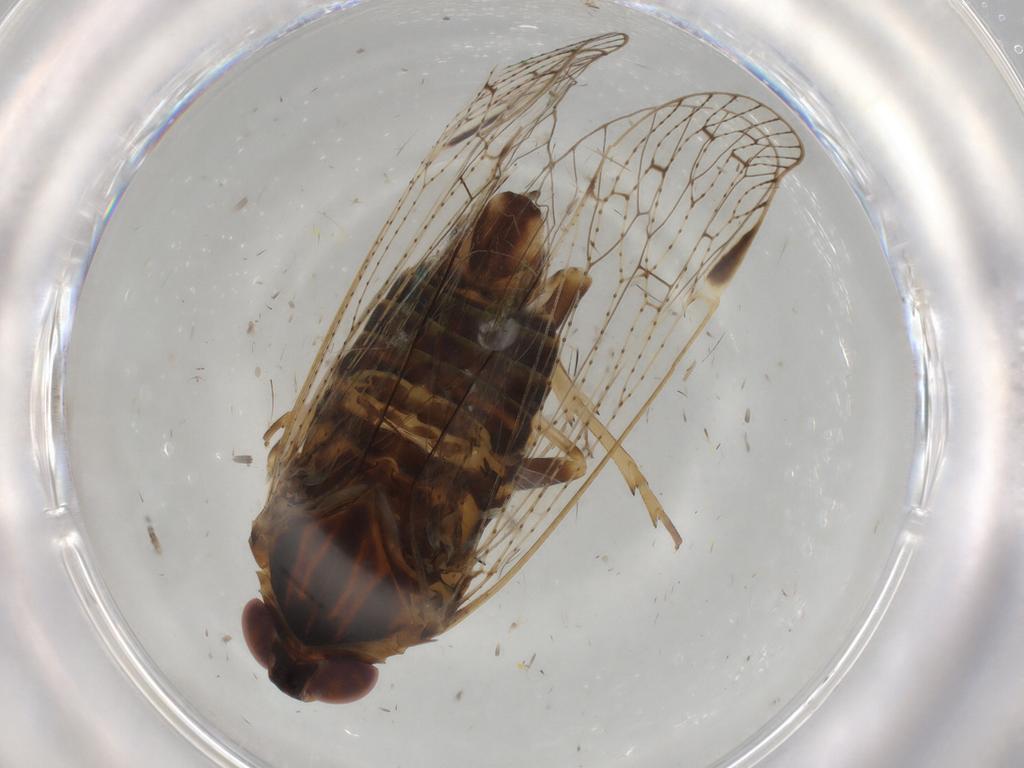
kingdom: Animalia
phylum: Arthropoda
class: Insecta
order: Hemiptera
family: Cixiidae
